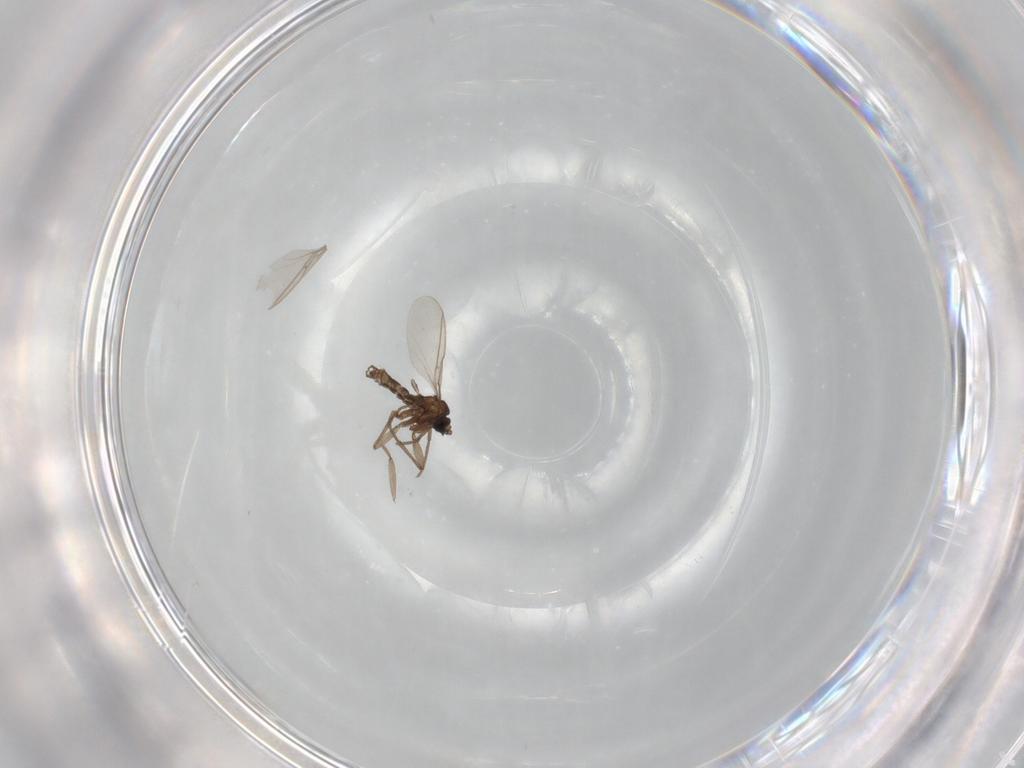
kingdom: Animalia
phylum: Arthropoda
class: Insecta
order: Diptera
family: Sciaridae
